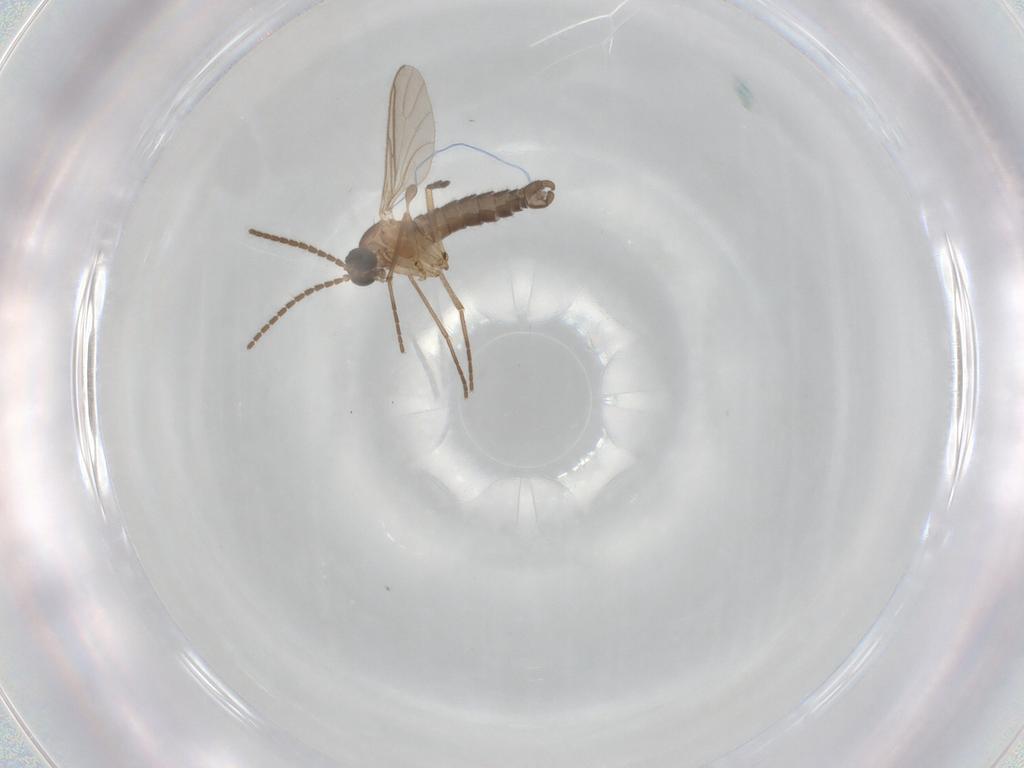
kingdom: Animalia
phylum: Arthropoda
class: Insecta
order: Diptera
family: Sciaridae
